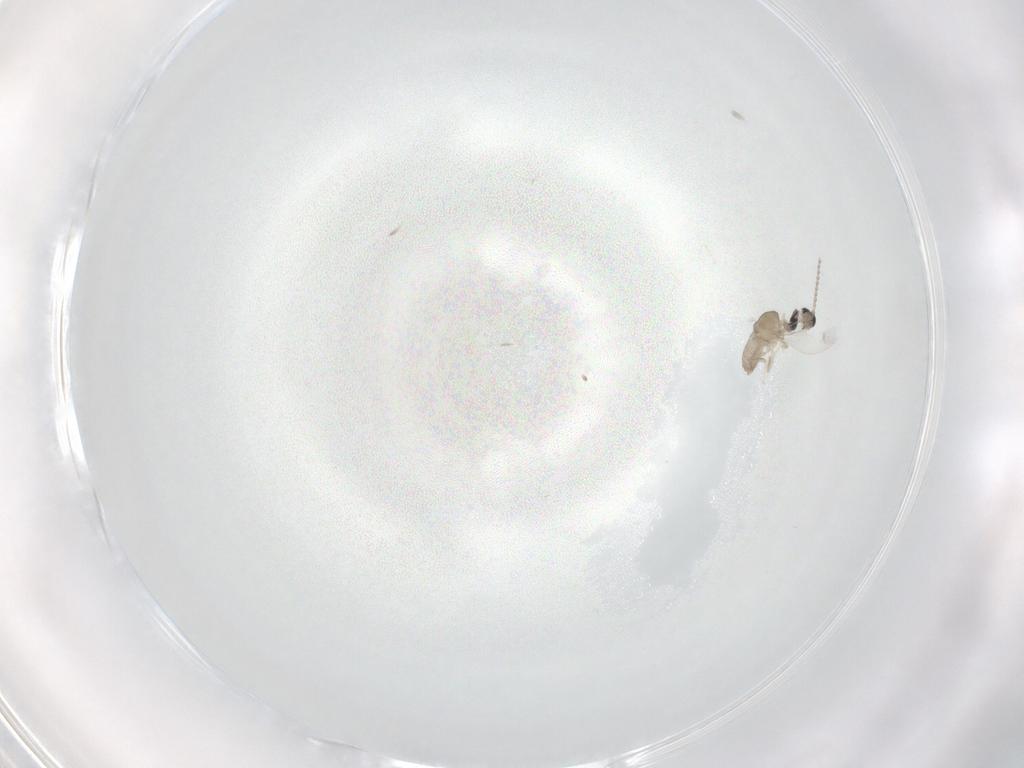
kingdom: Animalia
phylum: Arthropoda
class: Insecta
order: Diptera
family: Cecidomyiidae
